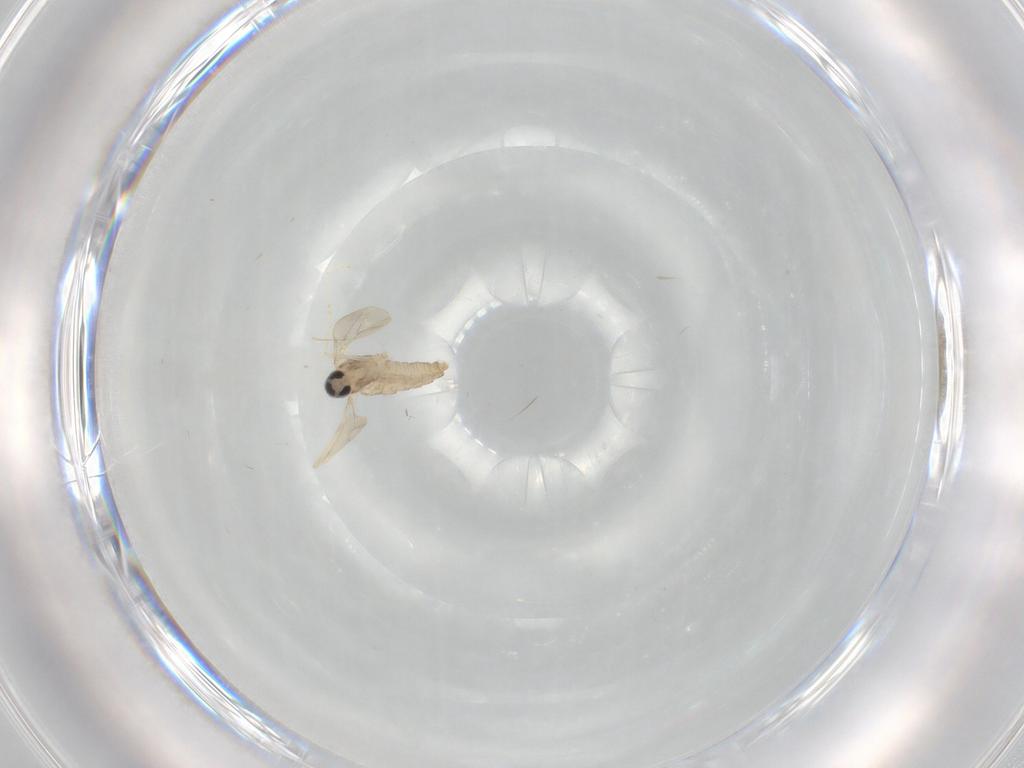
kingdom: Animalia
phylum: Arthropoda
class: Insecta
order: Diptera
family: Cecidomyiidae
